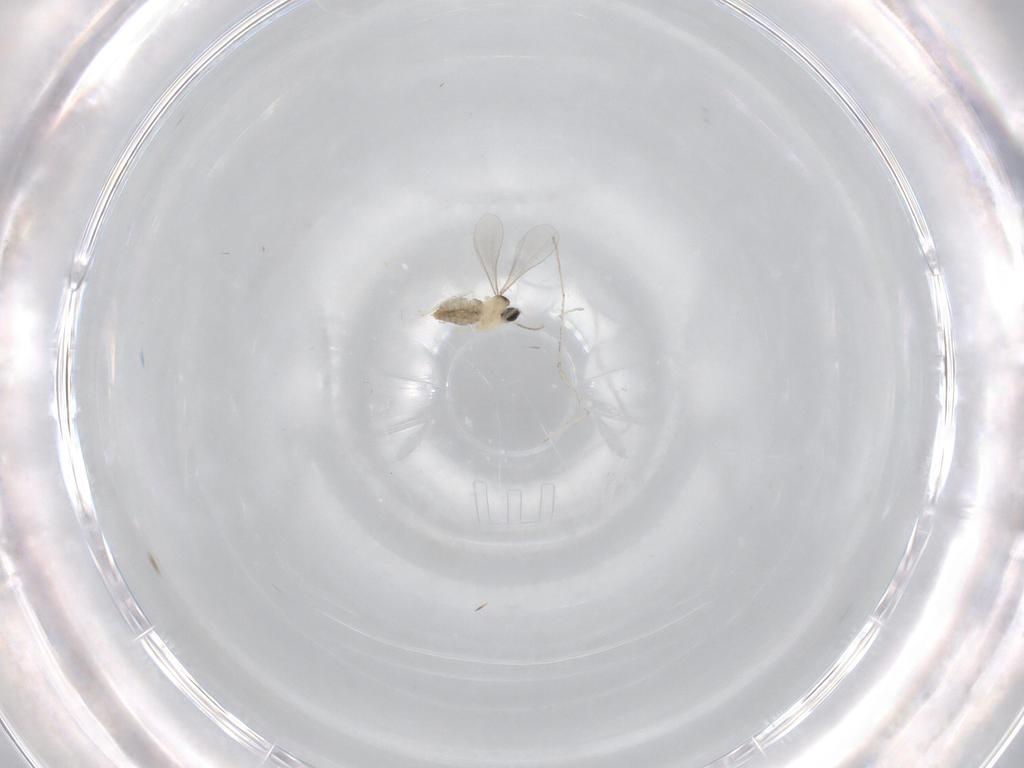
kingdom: Animalia
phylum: Arthropoda
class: Insecta
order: Diptera
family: Cecidomyiidae
